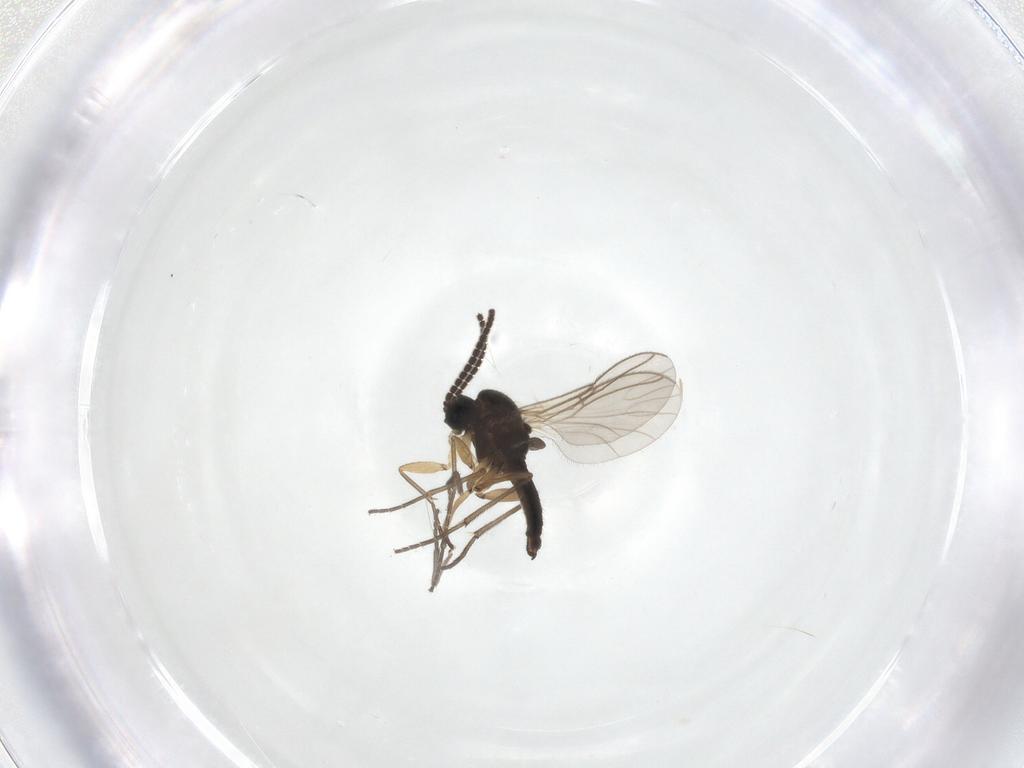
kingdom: Animalia
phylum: Arthropoda
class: Insecta
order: Diptera
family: Sciaridae
